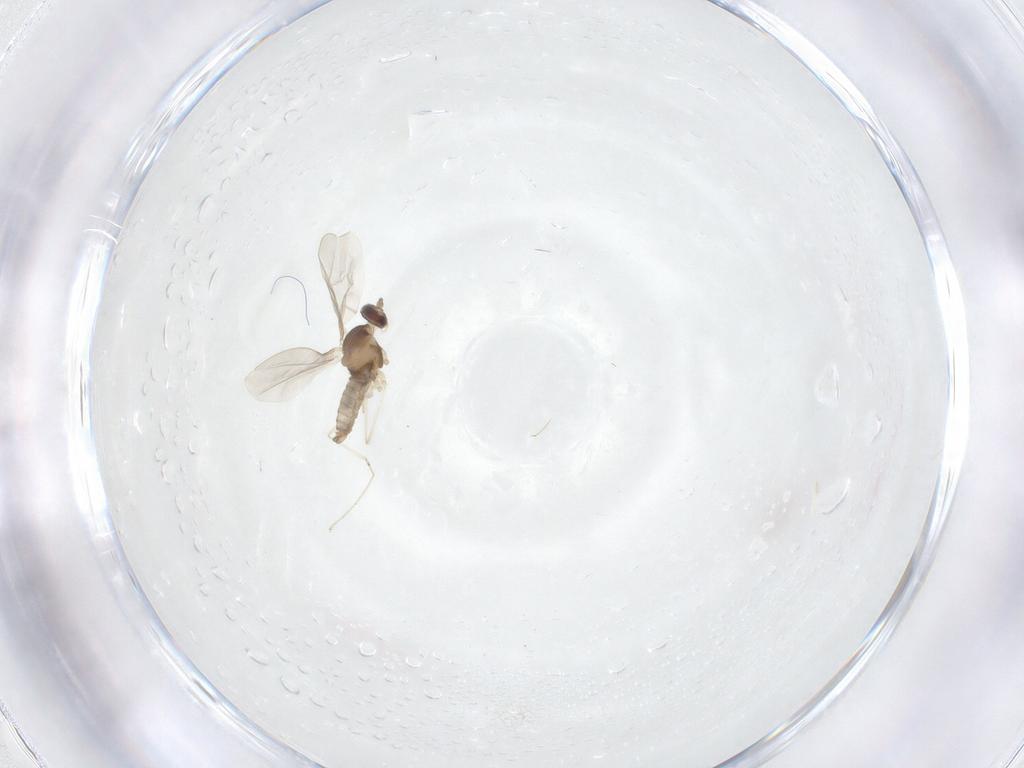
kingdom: Animalia
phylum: Arthropoda
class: Insecta
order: Diptera
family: Cecidomyiidae
